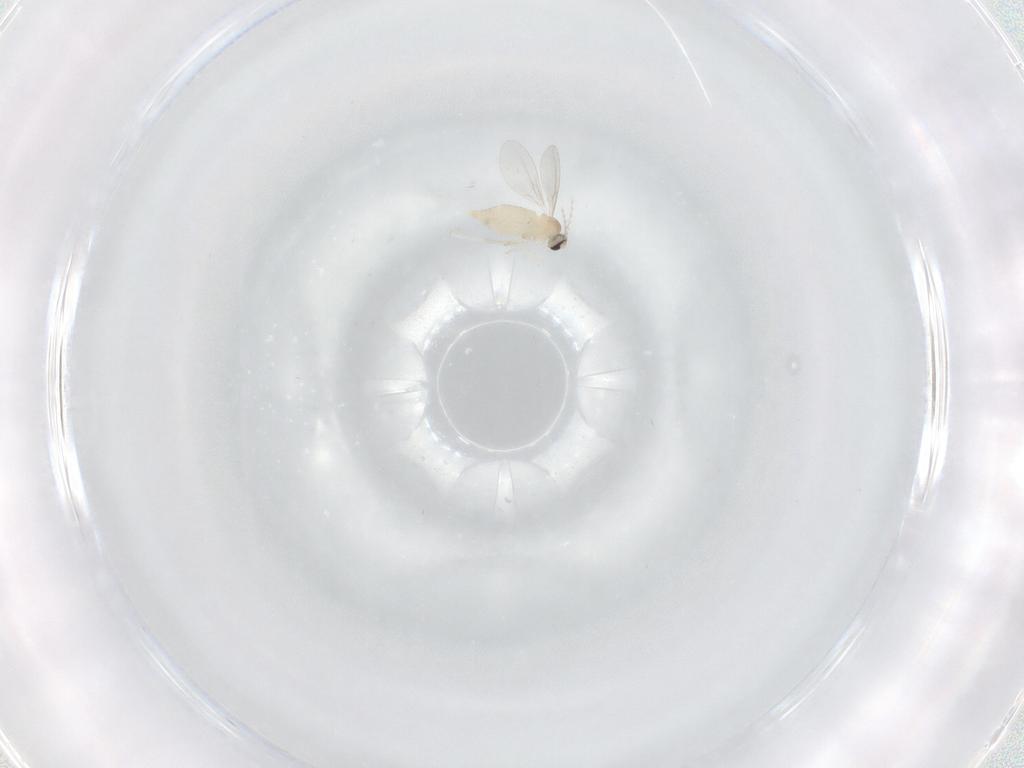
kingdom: Animalia
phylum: Arthropoda
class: Insecta
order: Diptera
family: Cecidomyiidae
